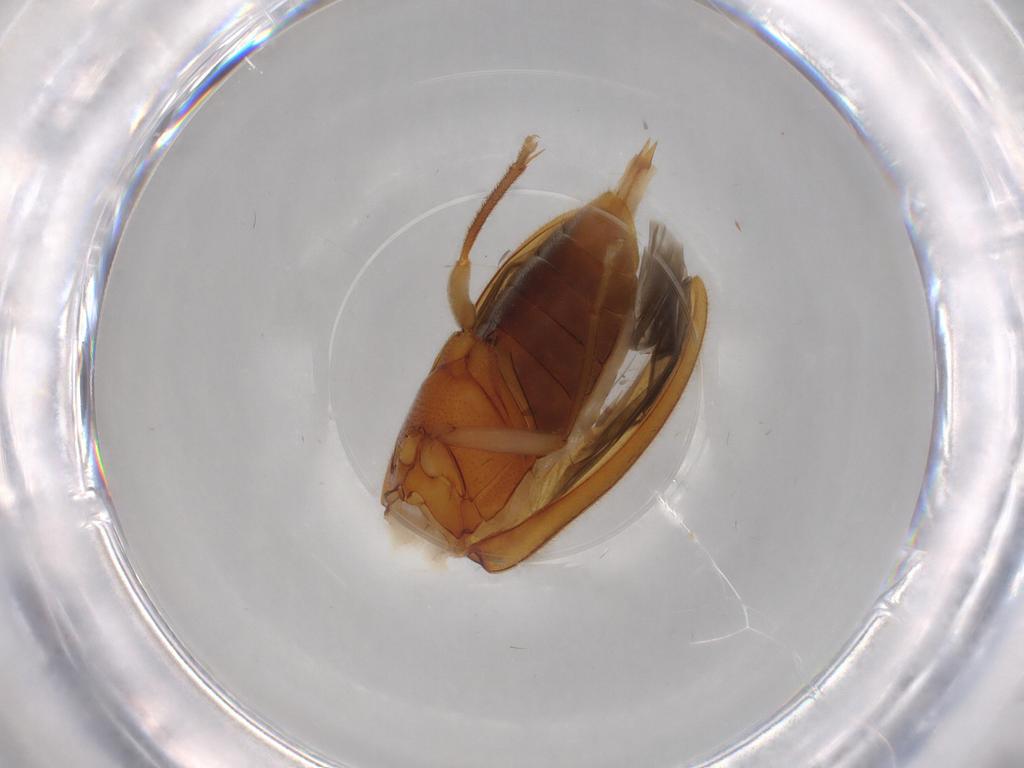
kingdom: Animalia
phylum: Arthropoda
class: Insecta
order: Coleoptera
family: Ptilodactylidae
